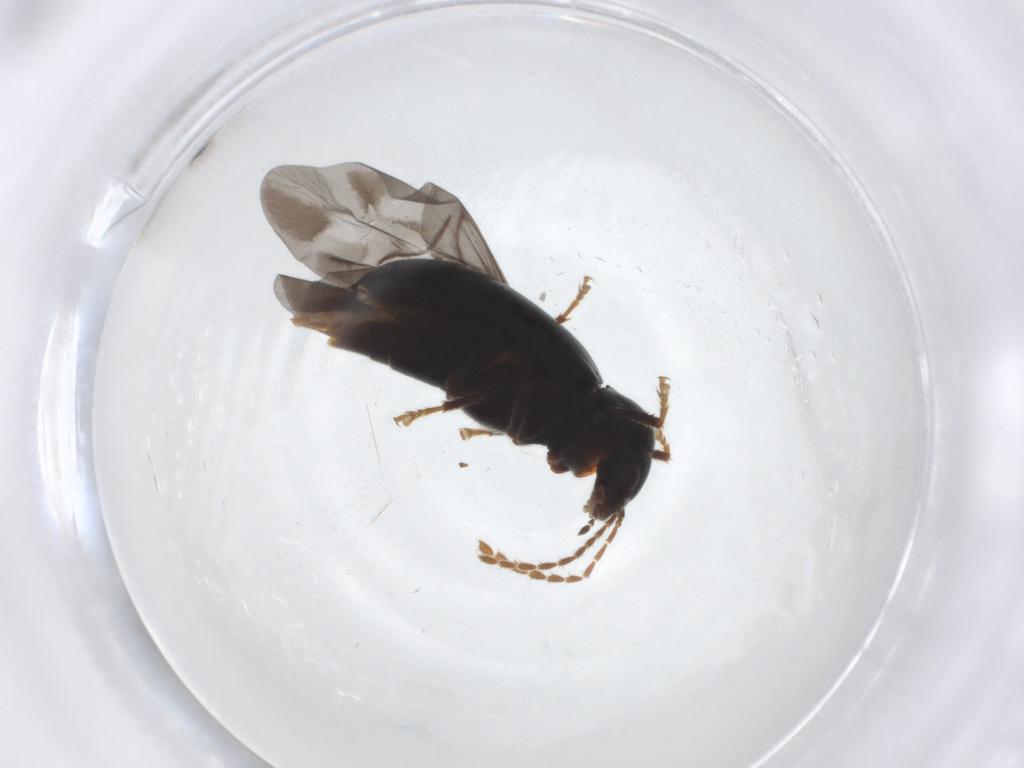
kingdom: Animalia
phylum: Arthropoda
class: Insecta
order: Coleoptera
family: Ptilodactylidae
